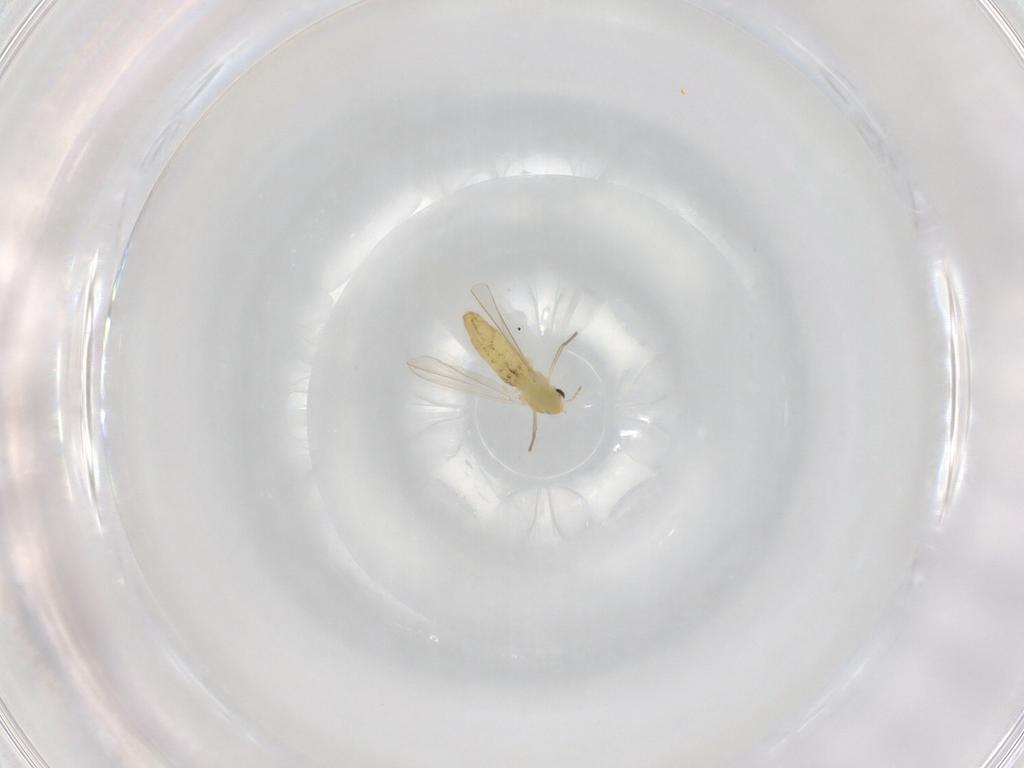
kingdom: Animalia
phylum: Arthropoda
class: Insecta
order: Diptera
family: Chironomidae
